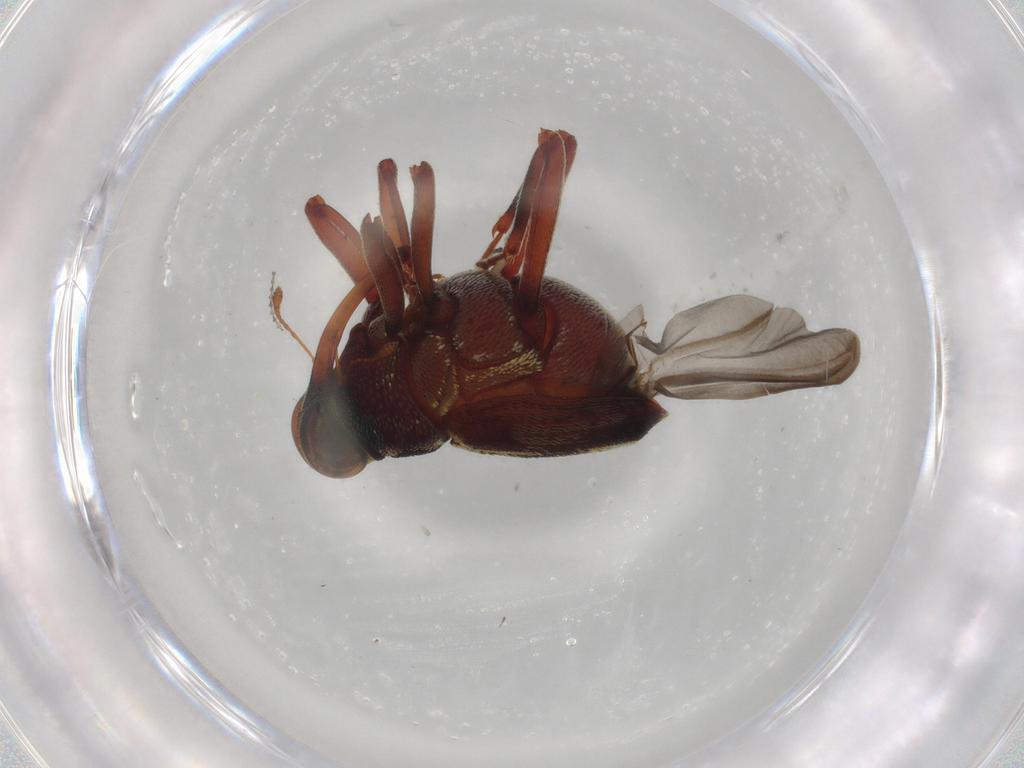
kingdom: Animalia
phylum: Arthropoda
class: Insecta
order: Coleoptera
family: Curculionidae
